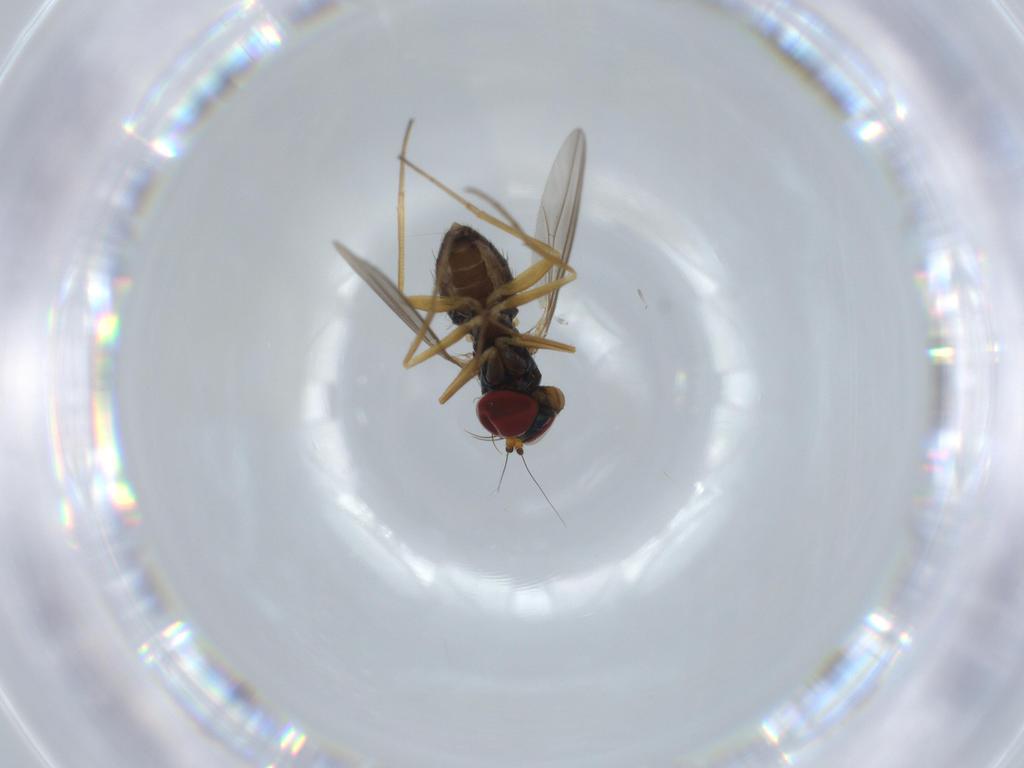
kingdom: Animalia
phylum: Arthropoda
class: Insecta
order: Diptera
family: Dolichopodidae
